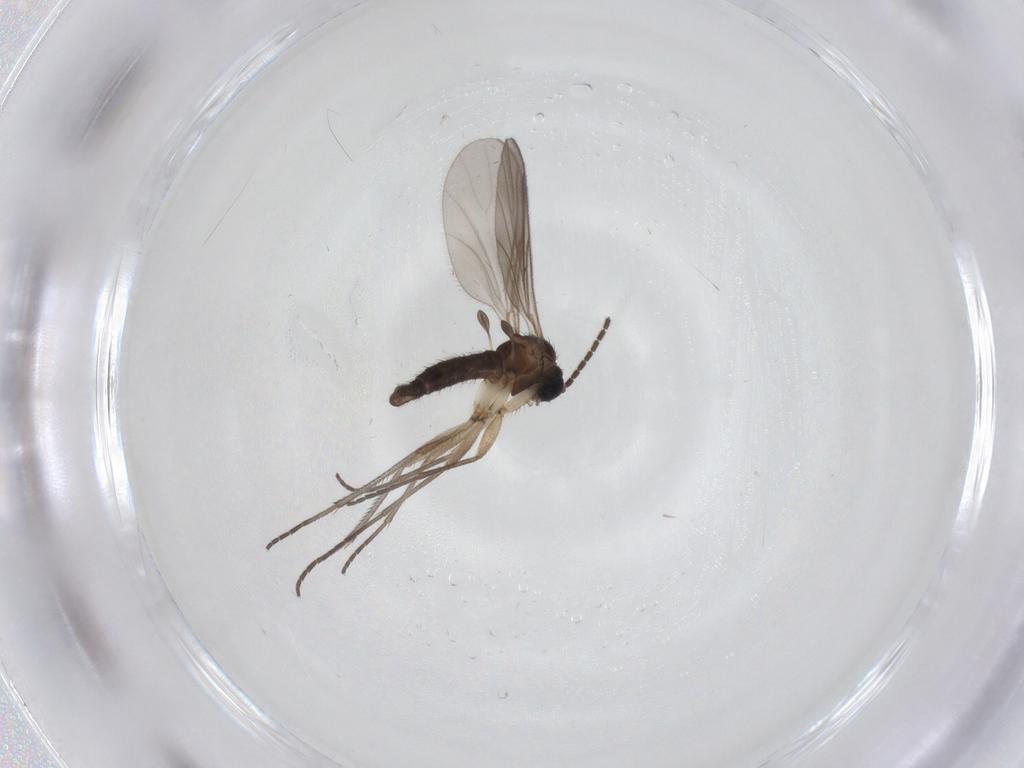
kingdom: Animalia
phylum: Arthropoda
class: Insecta
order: Diptera
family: Sciaridae
